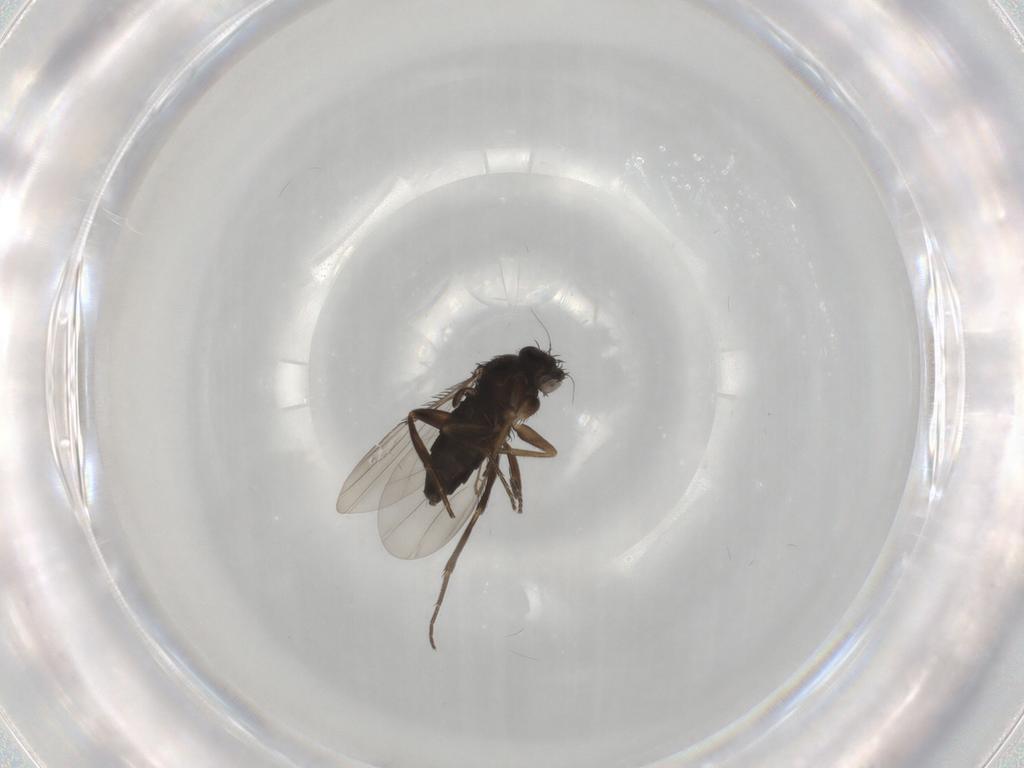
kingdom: Animalia
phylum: Arthropoda
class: Insecta
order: Diptera
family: Phoridae
